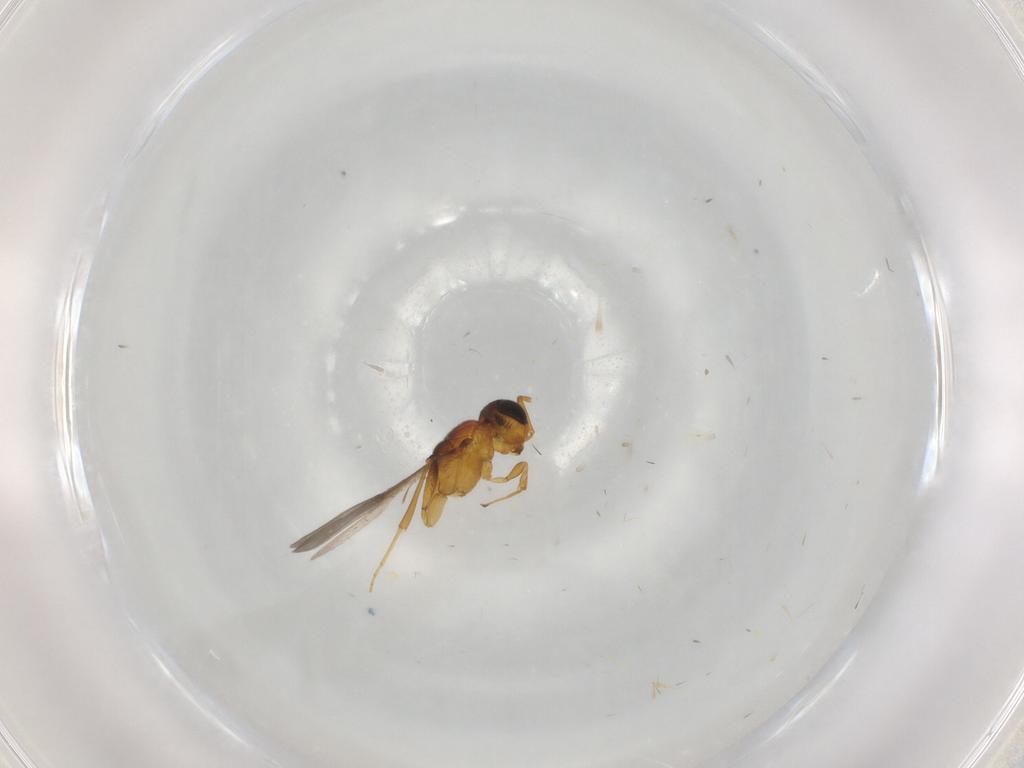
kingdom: Animalia
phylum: Arthropoda
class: Insecta
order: Hymenoptera
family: Scelionidae
